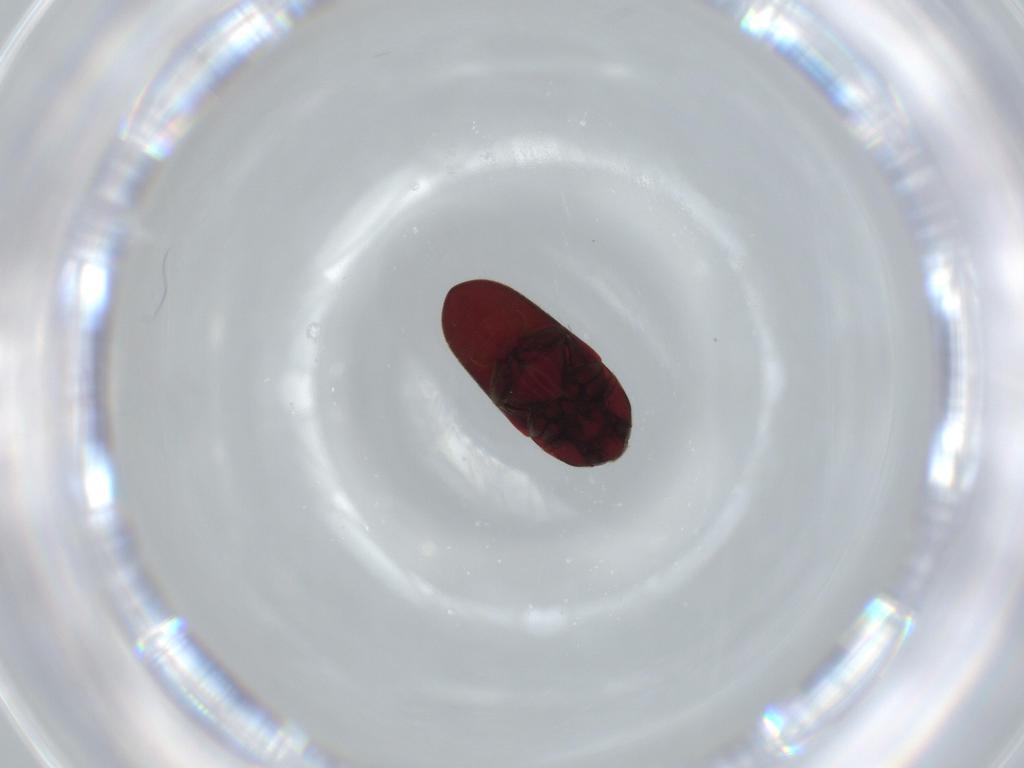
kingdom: Animalia
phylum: Arthropoda
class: Insecta
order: Coleoptera
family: Throscidae
